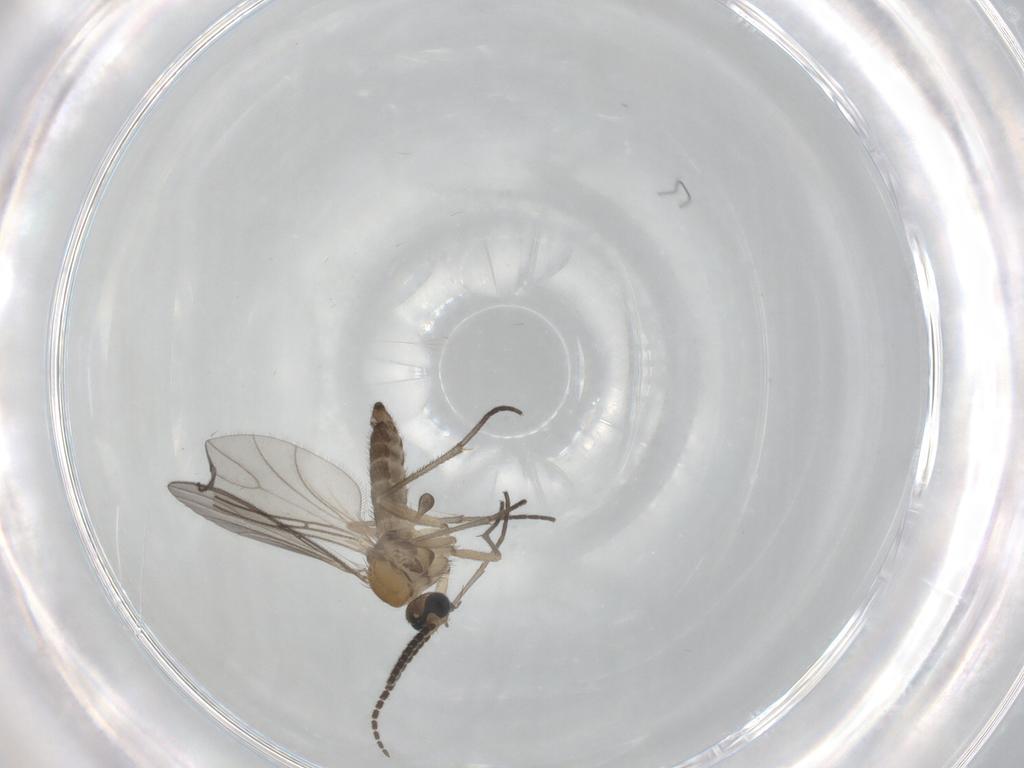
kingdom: Animalia
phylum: Arthropoda
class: Insecta
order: Diptera
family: Sciaridae
